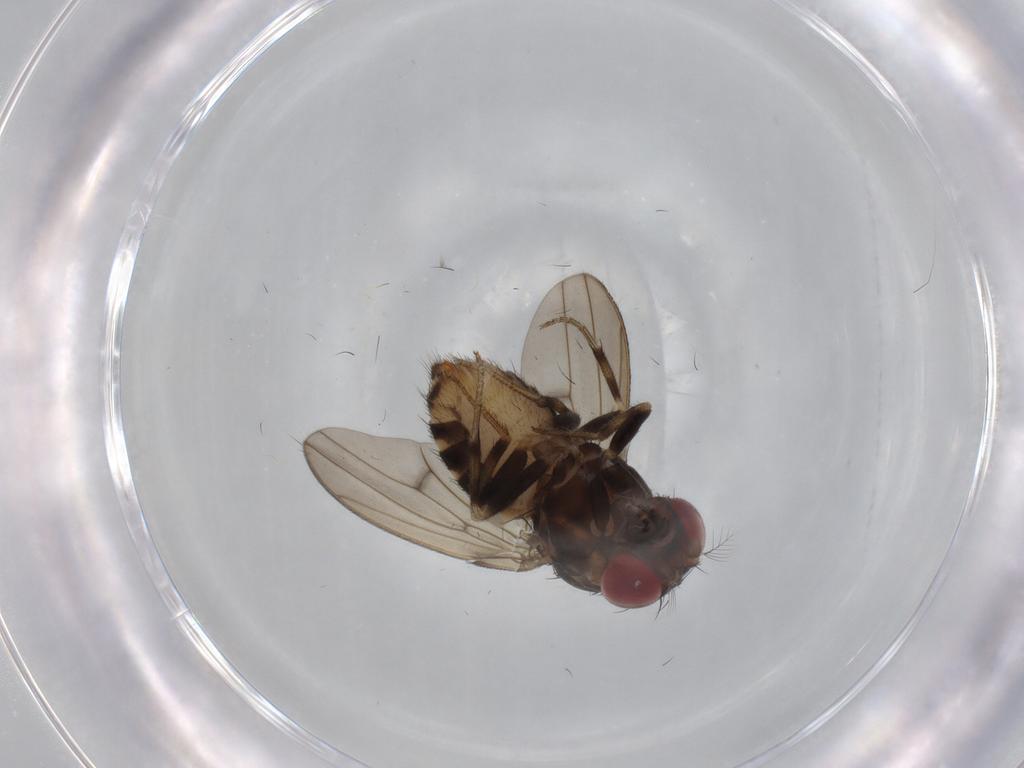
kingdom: Animalia
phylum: Arthropoda
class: Insecta
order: Diptera
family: Drosophilidae
